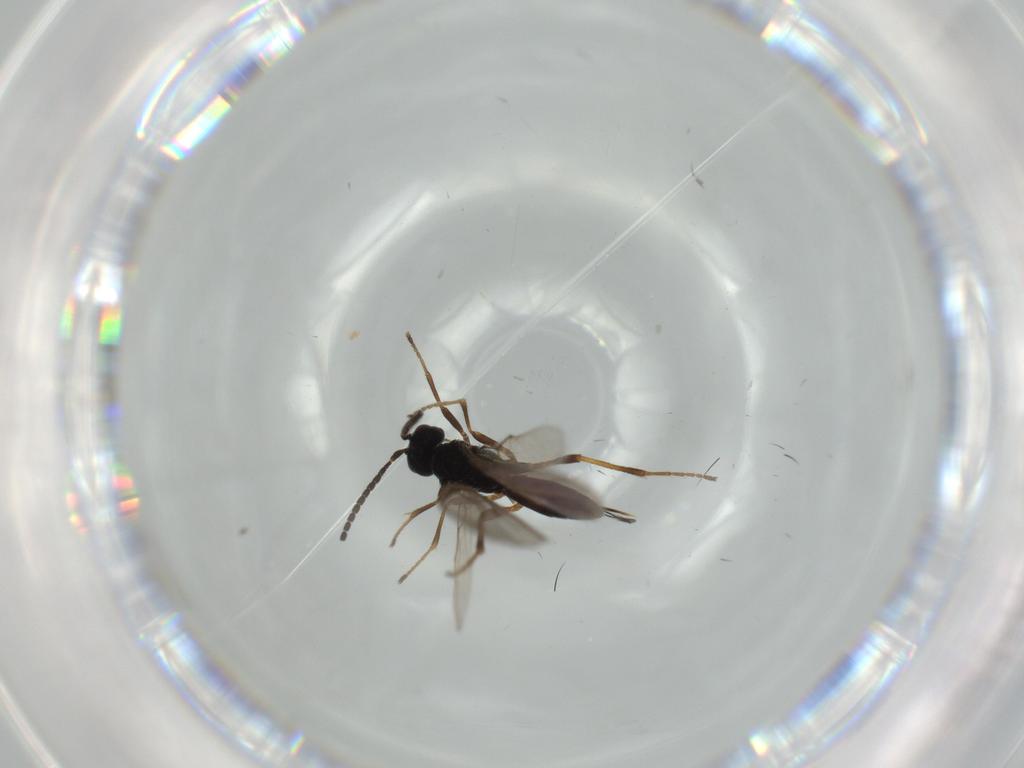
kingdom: Animalia
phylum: Arthropoda
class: Insecta
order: Hymenoptera
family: Braconidae
